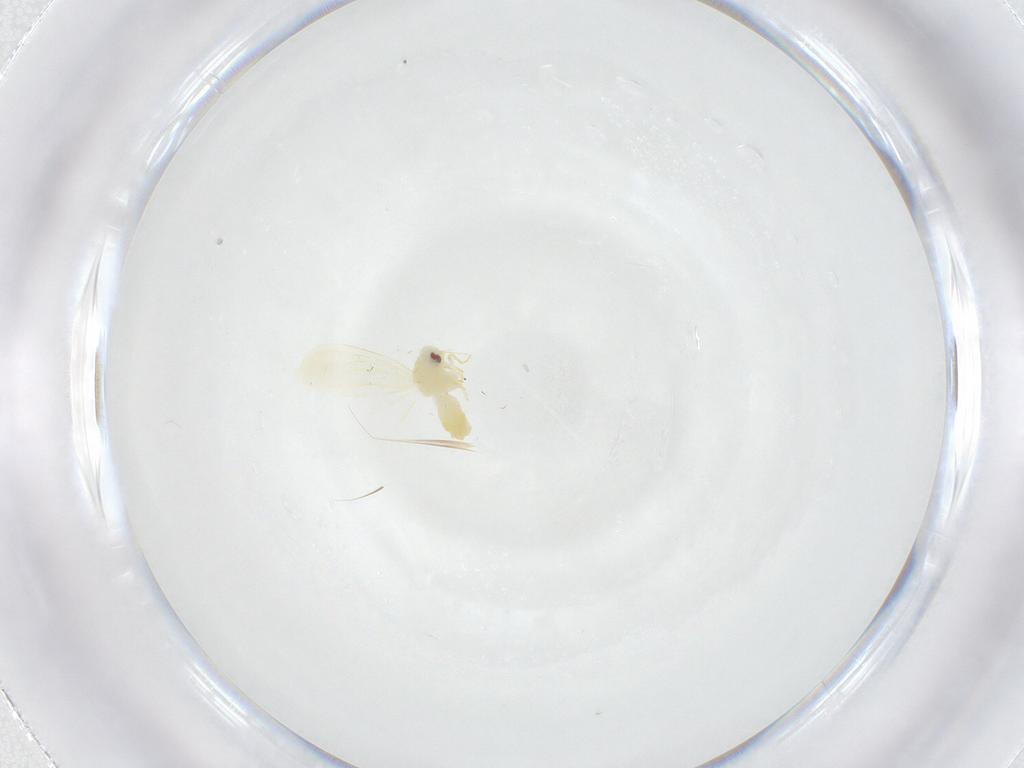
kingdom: Animalia
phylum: Arthropoda
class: Insecta
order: Hemiptera
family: Aleyrodidae
